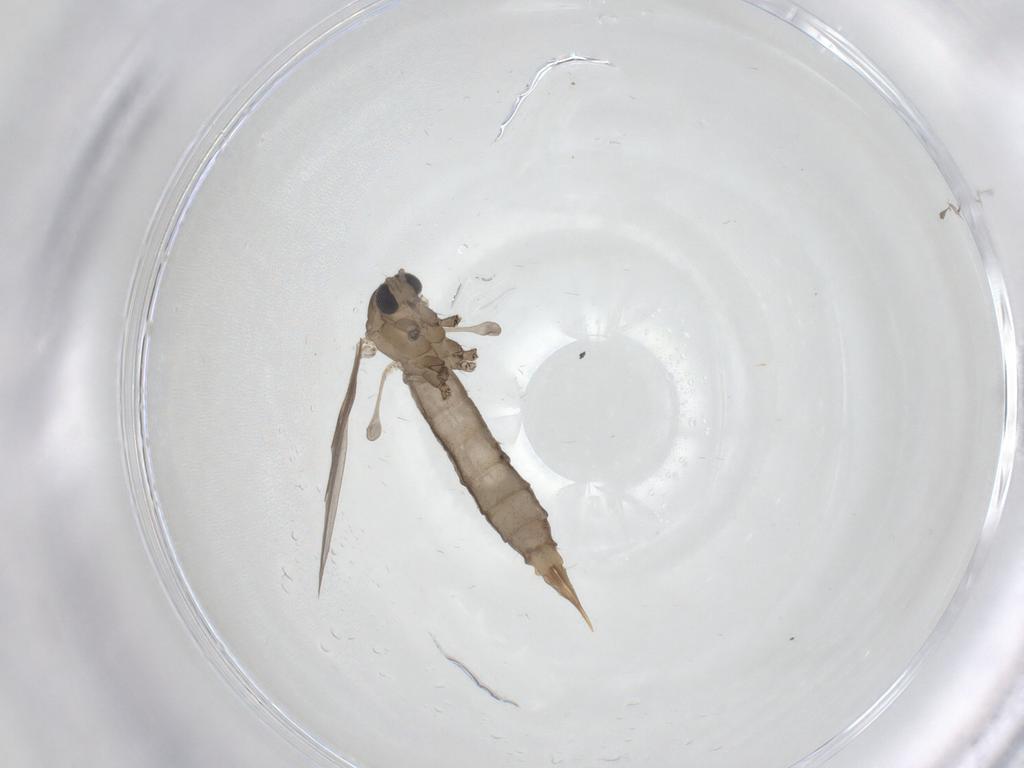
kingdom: Animalia
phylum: Arthropoda
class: Insecta
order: Diptera
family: Limoniidae
